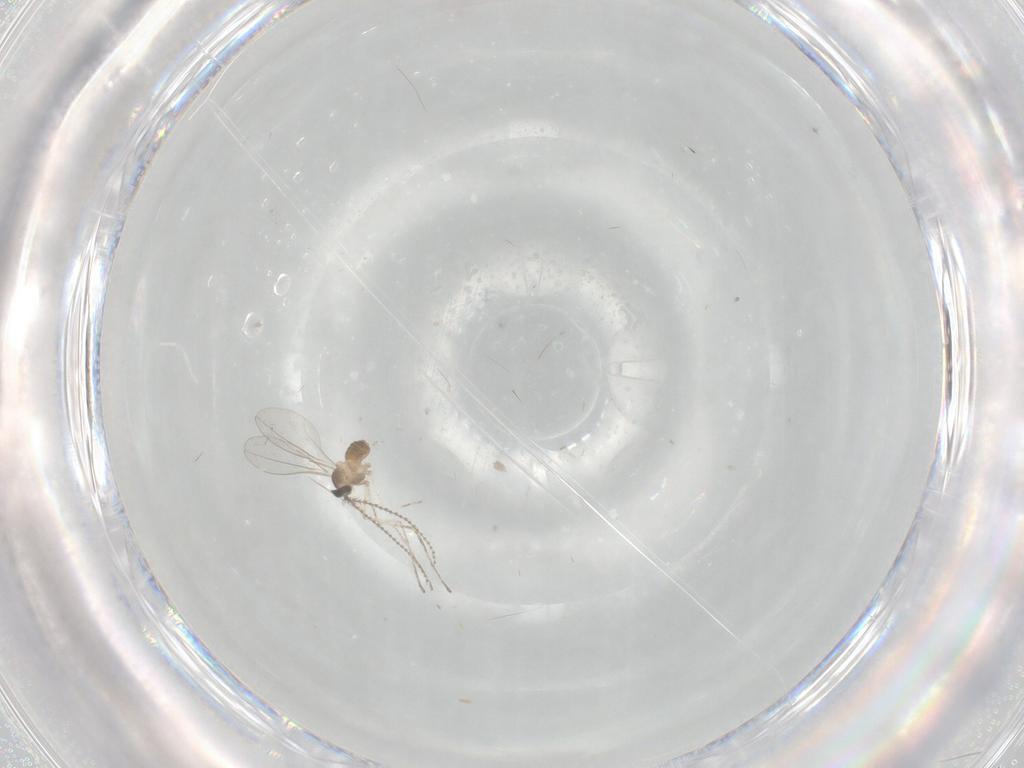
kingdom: Animalia
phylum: Arthropoda
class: Insecta
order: Diptera
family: Cecidomyiidae
